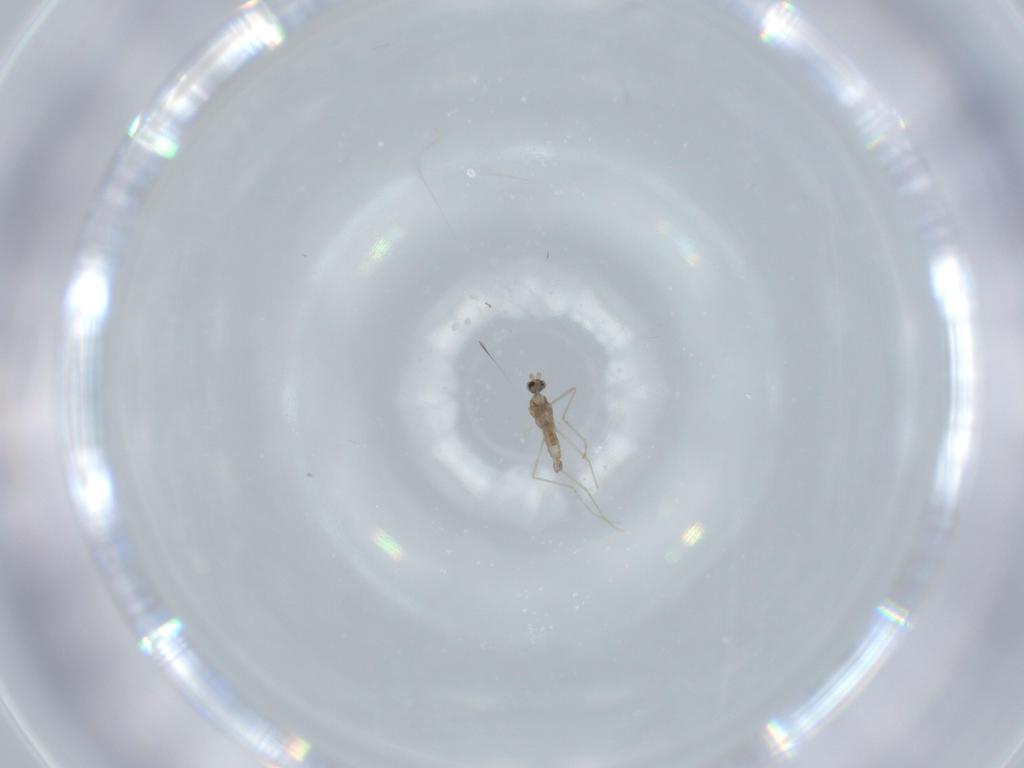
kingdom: Animalia
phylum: Arthropoda
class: Insecta
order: Diptera
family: Cecidomyiidae
